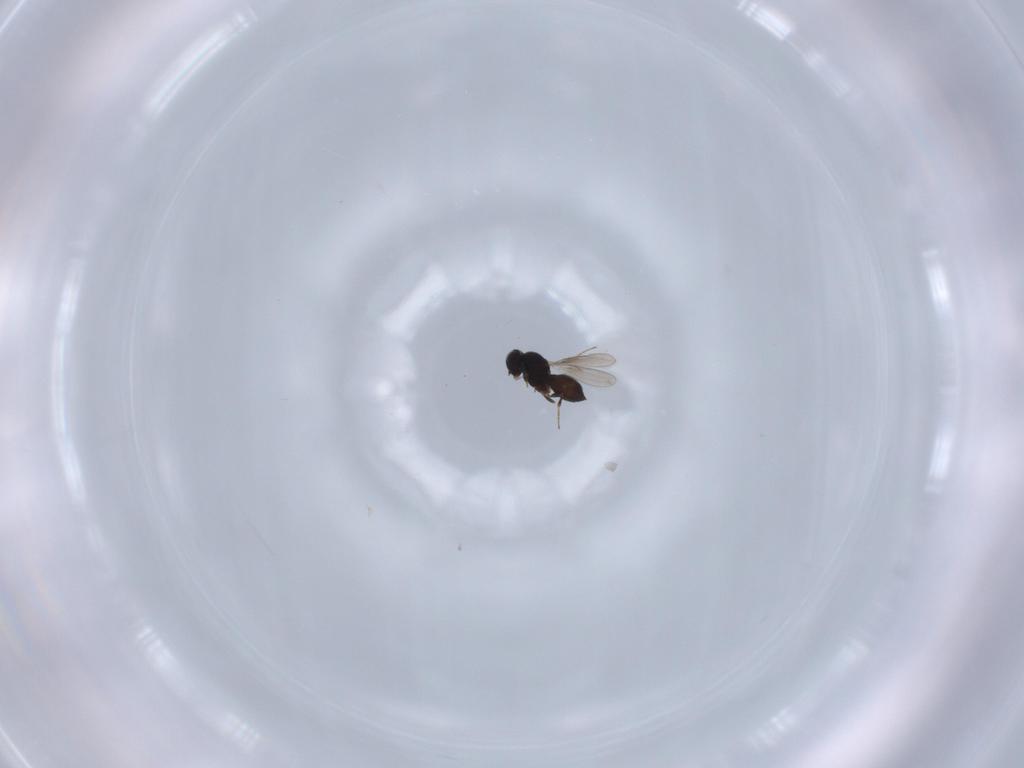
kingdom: Animalia
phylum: Arthropoda
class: Insecta
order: Hymenoptera
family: Scelionidae
